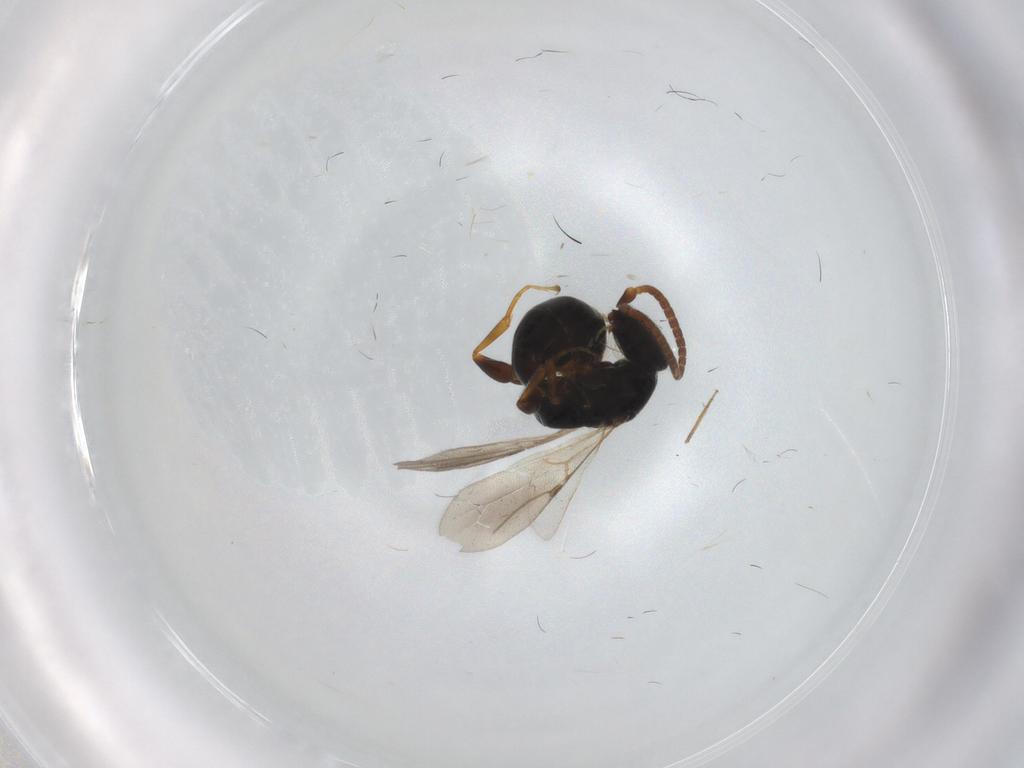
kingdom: Animalia
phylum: Arthropoda
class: Insecta
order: Hymenoptera
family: Bethylidae
